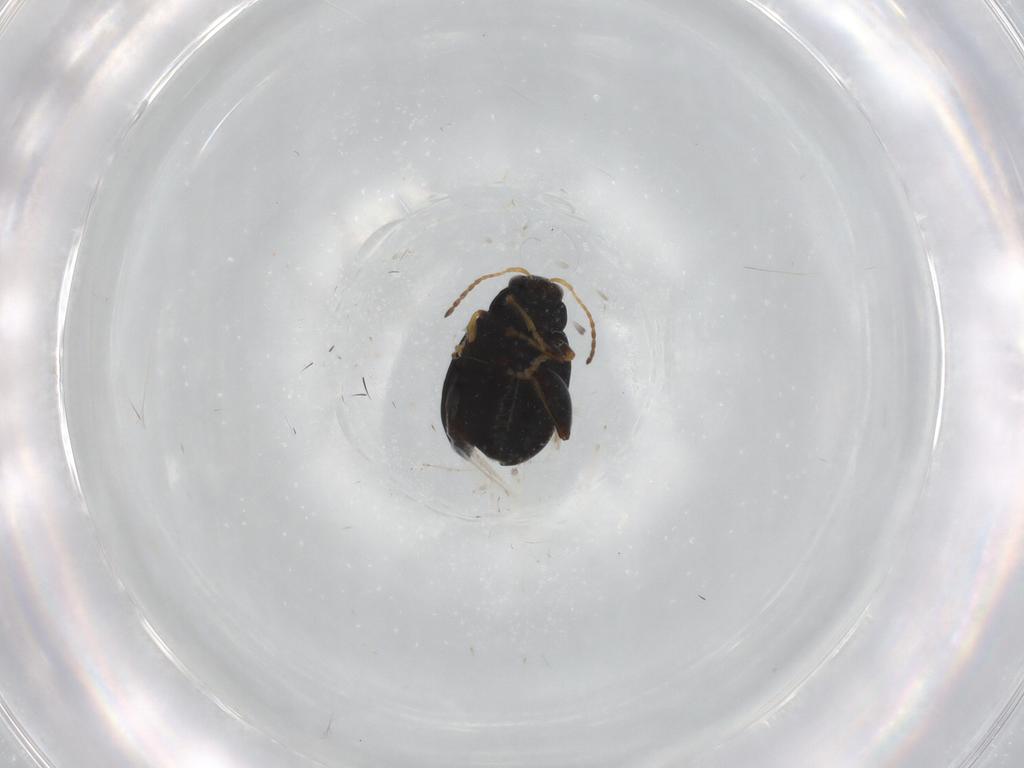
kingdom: Animalia
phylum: Arthropoda
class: Insecta
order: Coleoptera
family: Chrysomelidae
